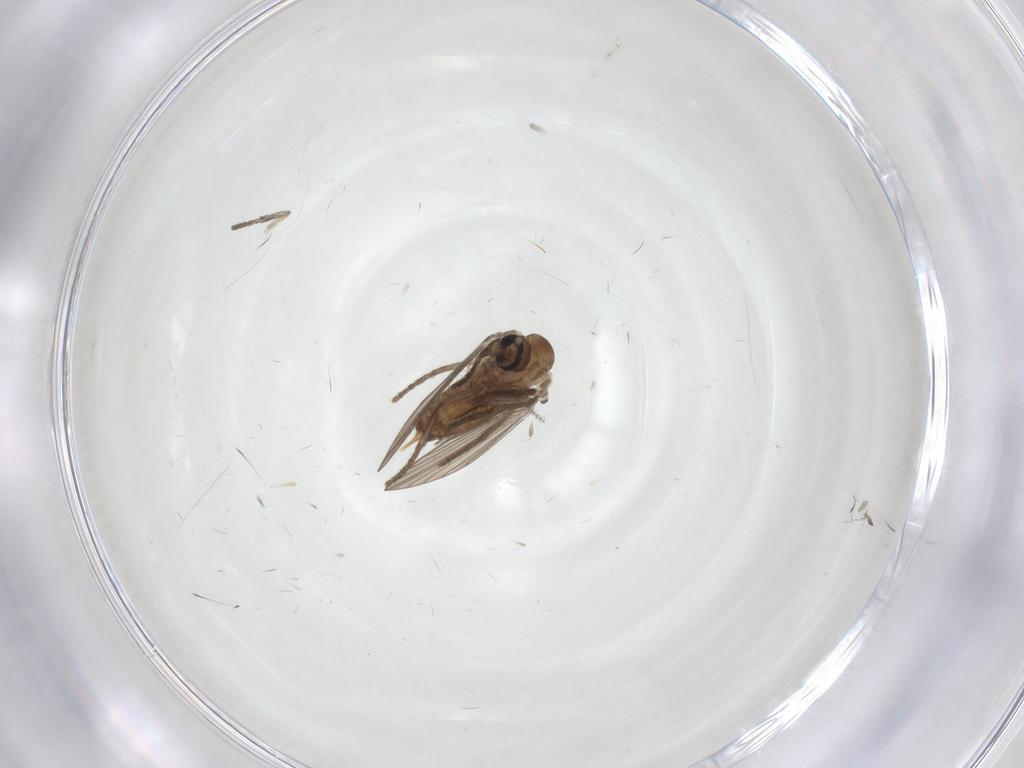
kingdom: Animalia
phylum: Arthropoda
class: Insecta
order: Diptera
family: Psychodidae
